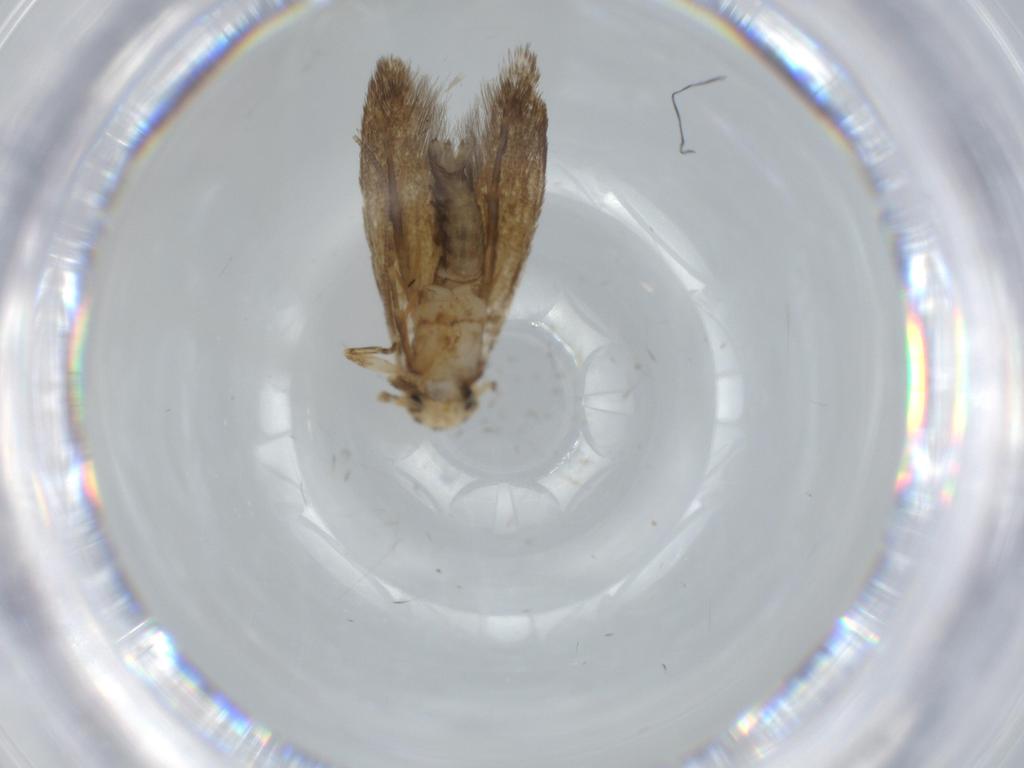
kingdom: Animalia
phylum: Arthropoda
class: Insecta
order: Lepidoptera
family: Tineidae
